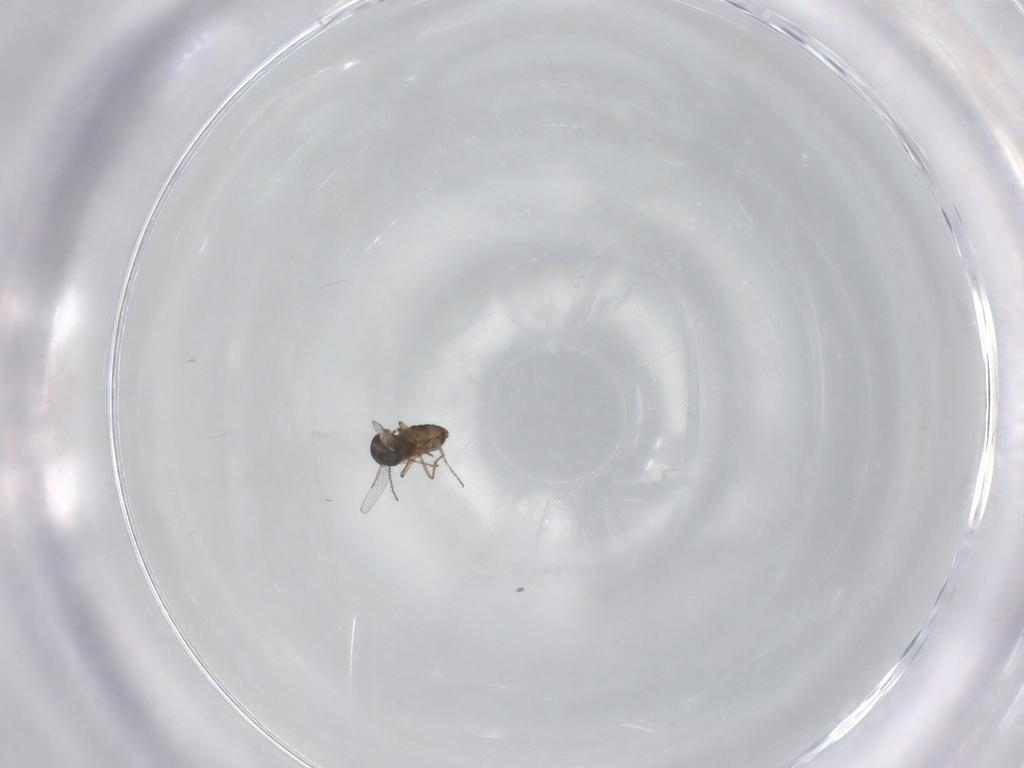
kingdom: Animalia
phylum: Arthropoda
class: Insecta
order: Diptera
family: Ceratopogonidae
